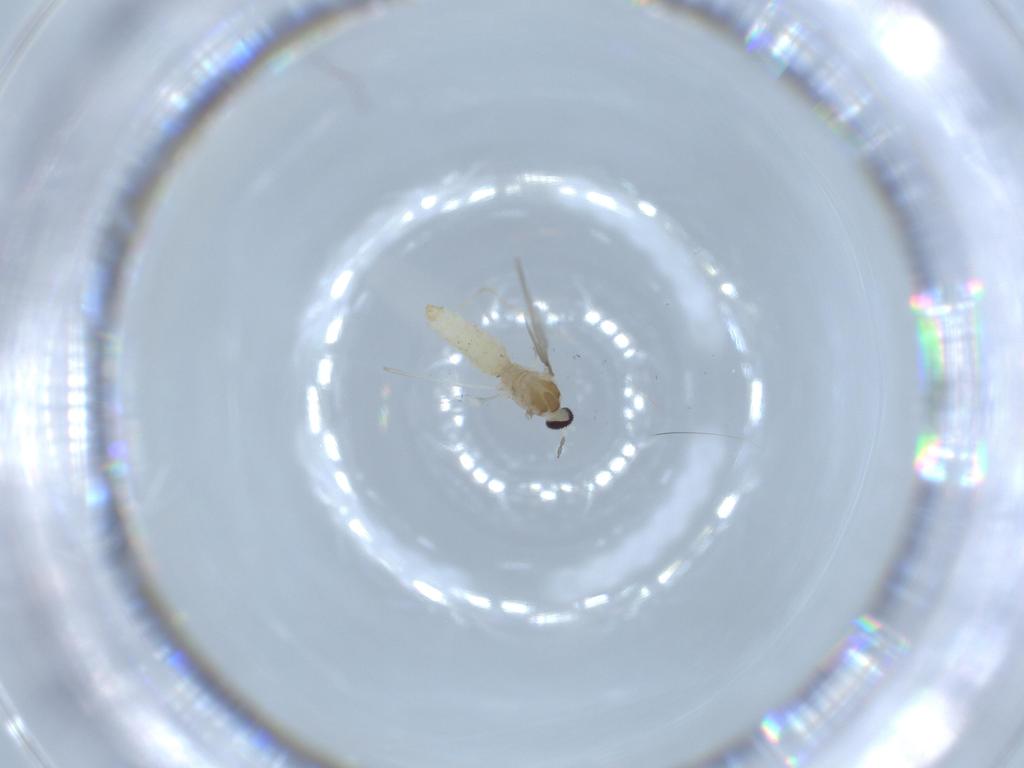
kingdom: Animalia
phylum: Arthropoda
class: Insecta
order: Diptera
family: Cecidomyiidae
